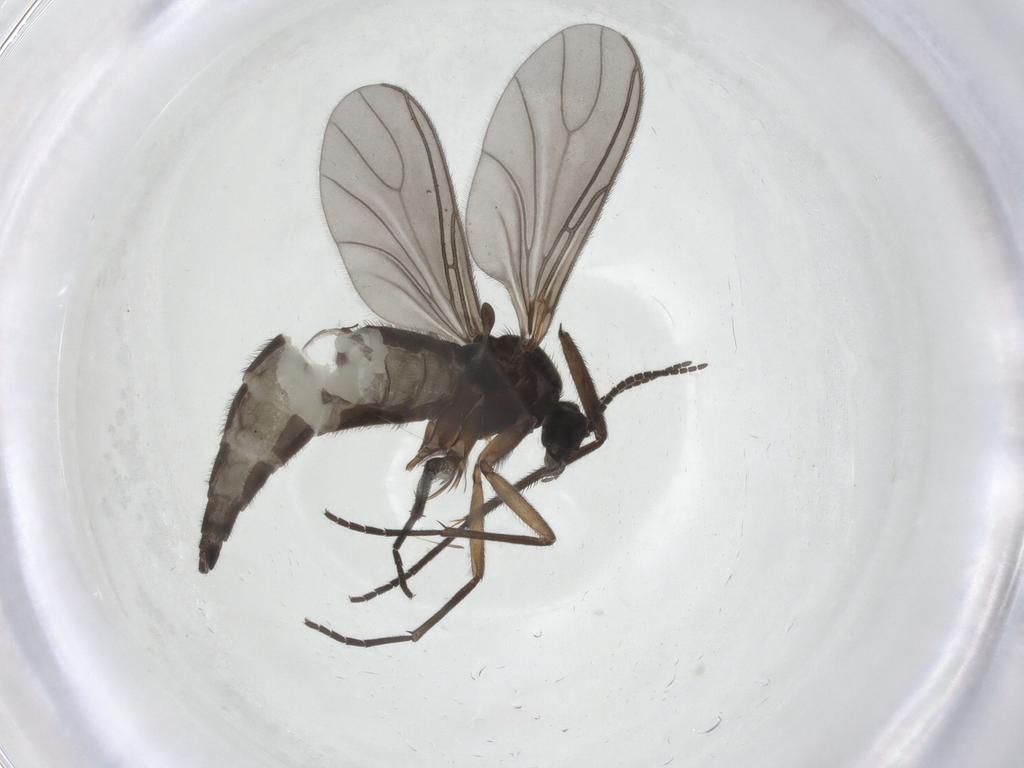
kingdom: Animalia
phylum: Arthropoda
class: Insecta
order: Diptera
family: Sciaridae
